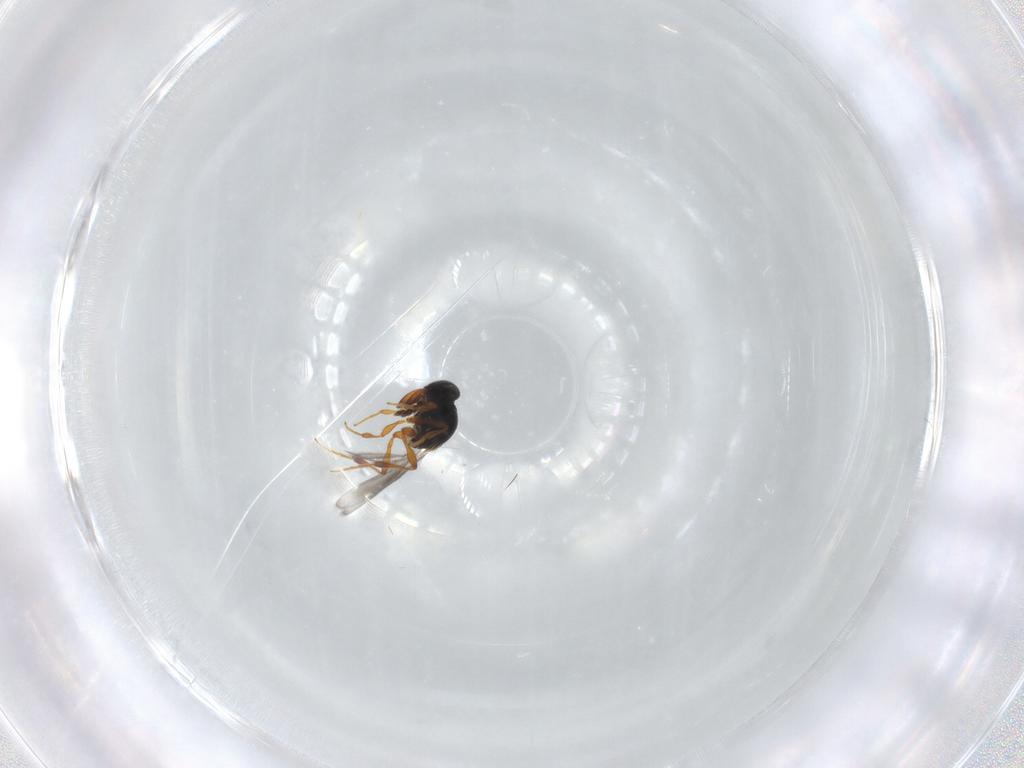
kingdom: Animalia
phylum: Arthropoda
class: Insecta
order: Hymenoptera
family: Platygastridae
